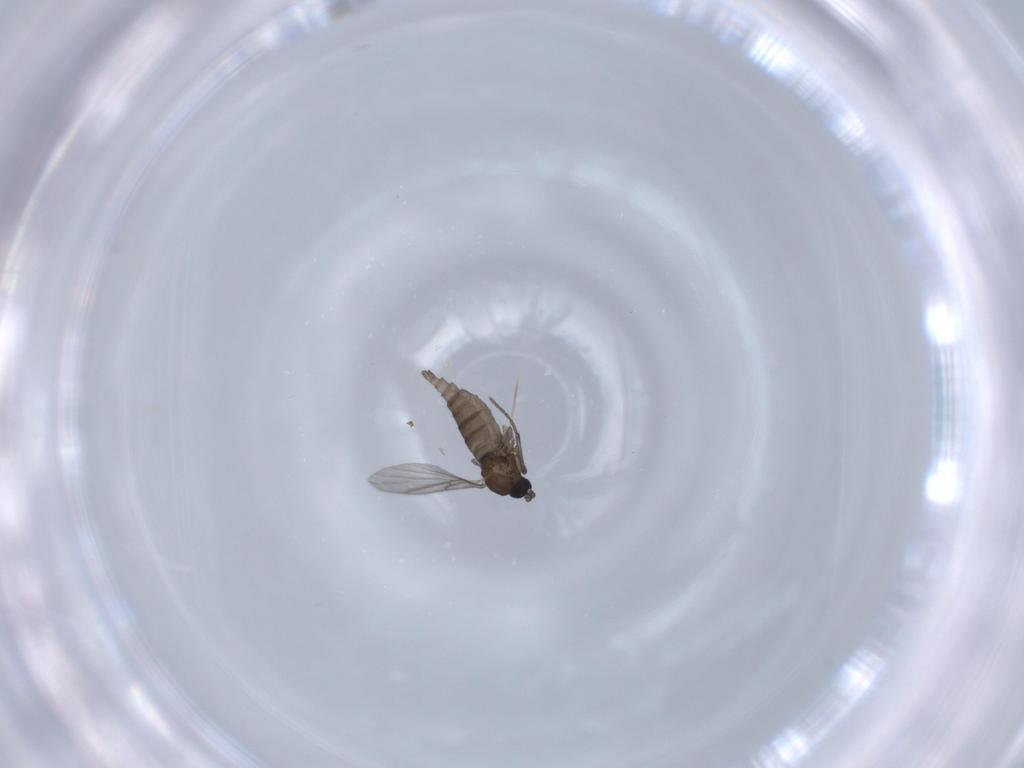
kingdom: Animalia
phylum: Arthropoda
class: Insecta
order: Diptera
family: Sciaridae
